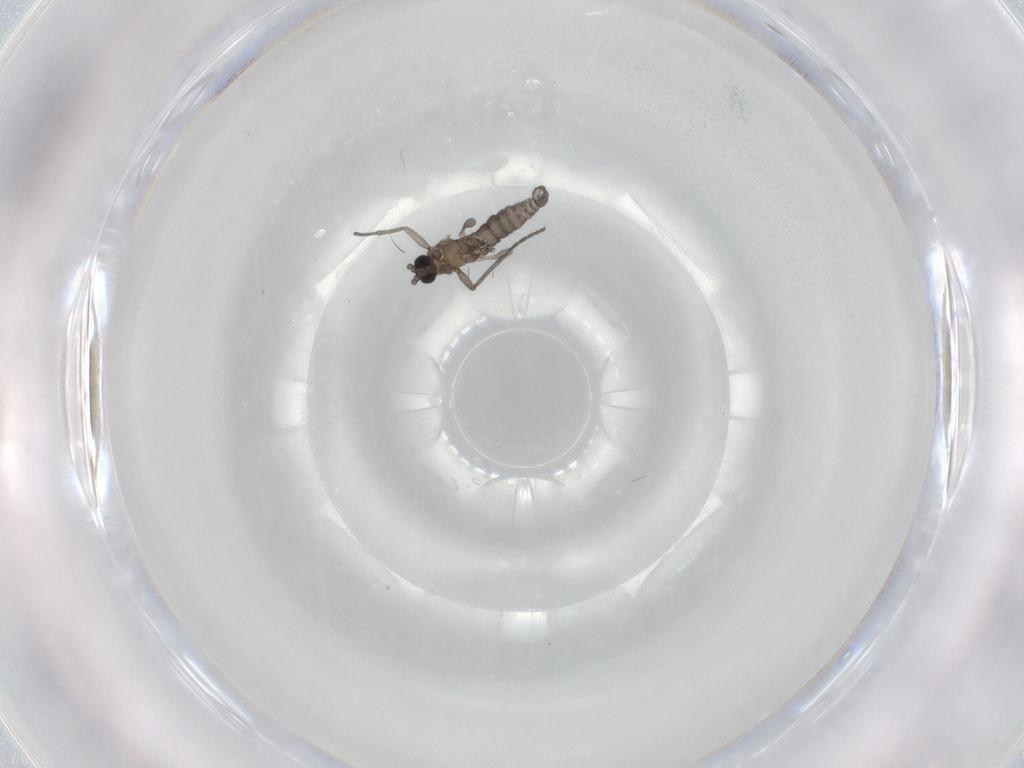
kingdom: Animalia
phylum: Arthropoda
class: Insecta
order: Diptera
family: Sciaridae
